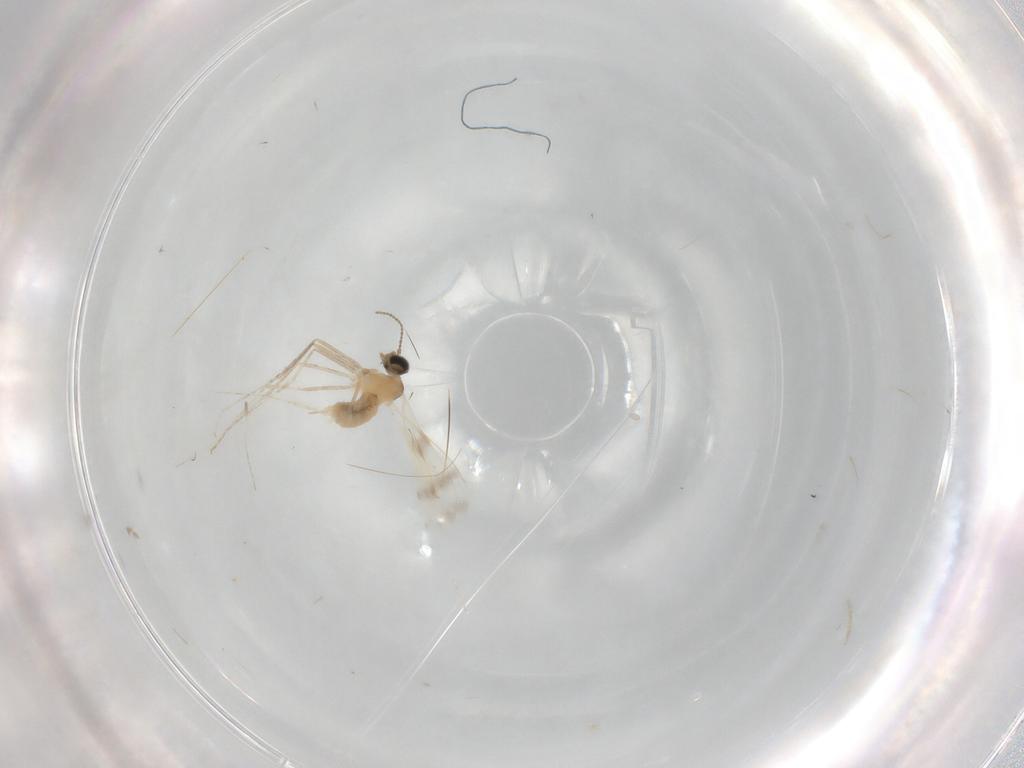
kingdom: Animalia
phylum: Arthropoda
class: Insecta
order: Diptera
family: Cecidomyiidae
